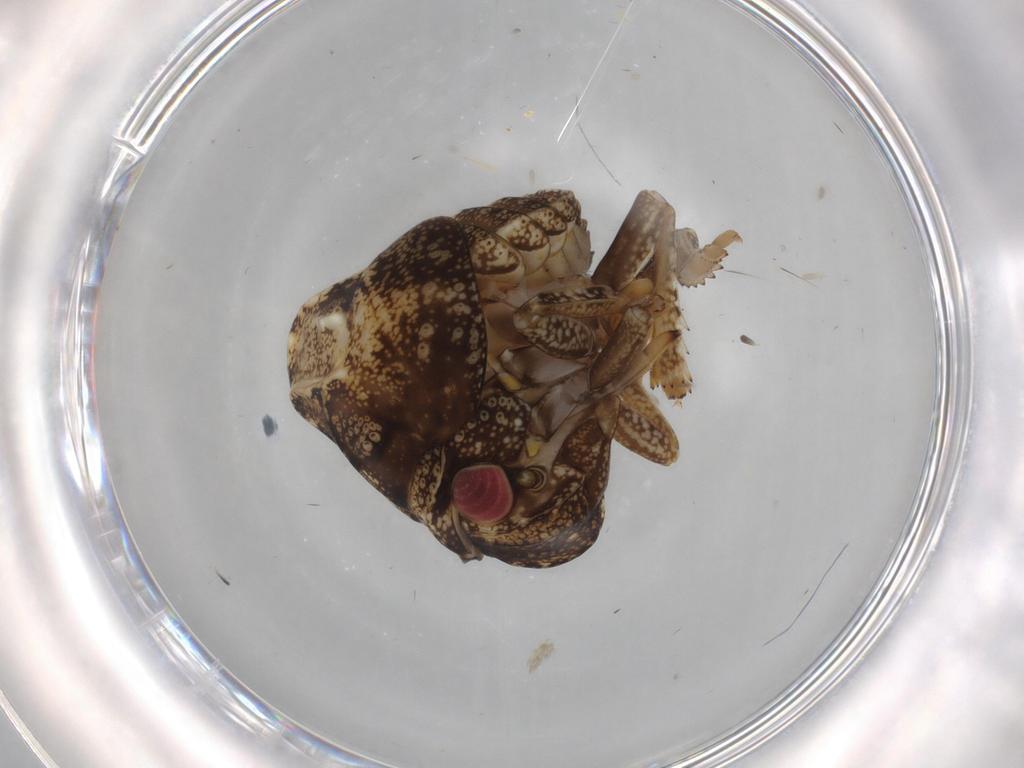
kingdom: Animalia
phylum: Arthropoda
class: Insecta
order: Hemiptera
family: Acanaloniidae
